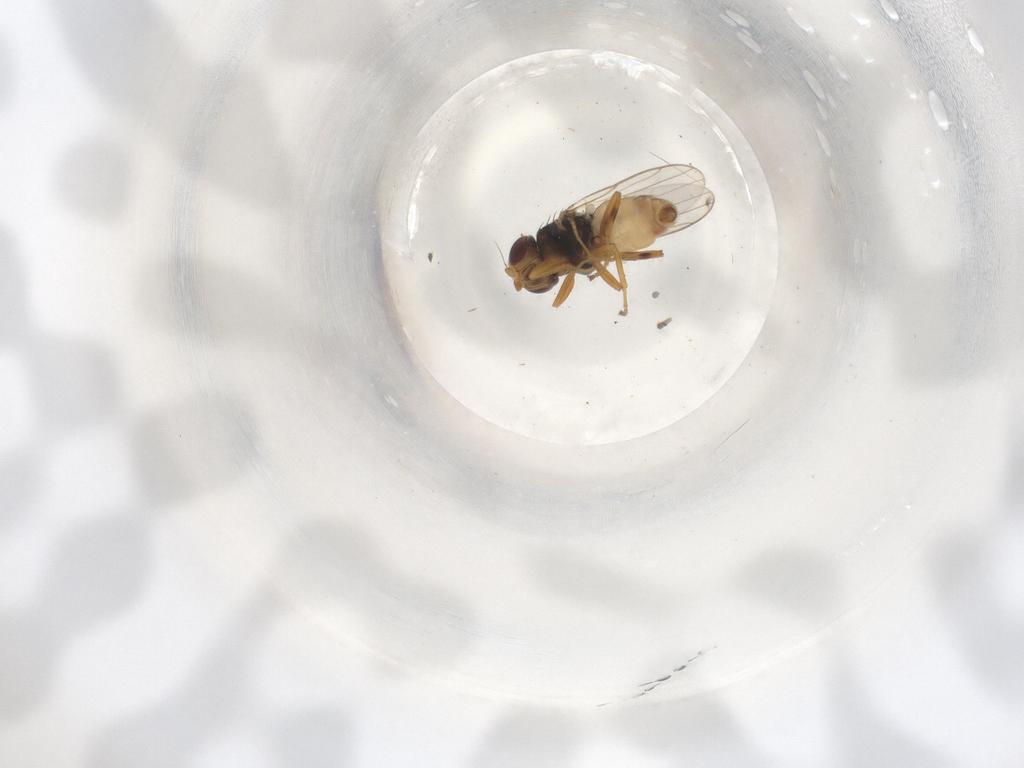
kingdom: Animalia
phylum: Arthropoda
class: Insecta
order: Diptera
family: Chloropidae
